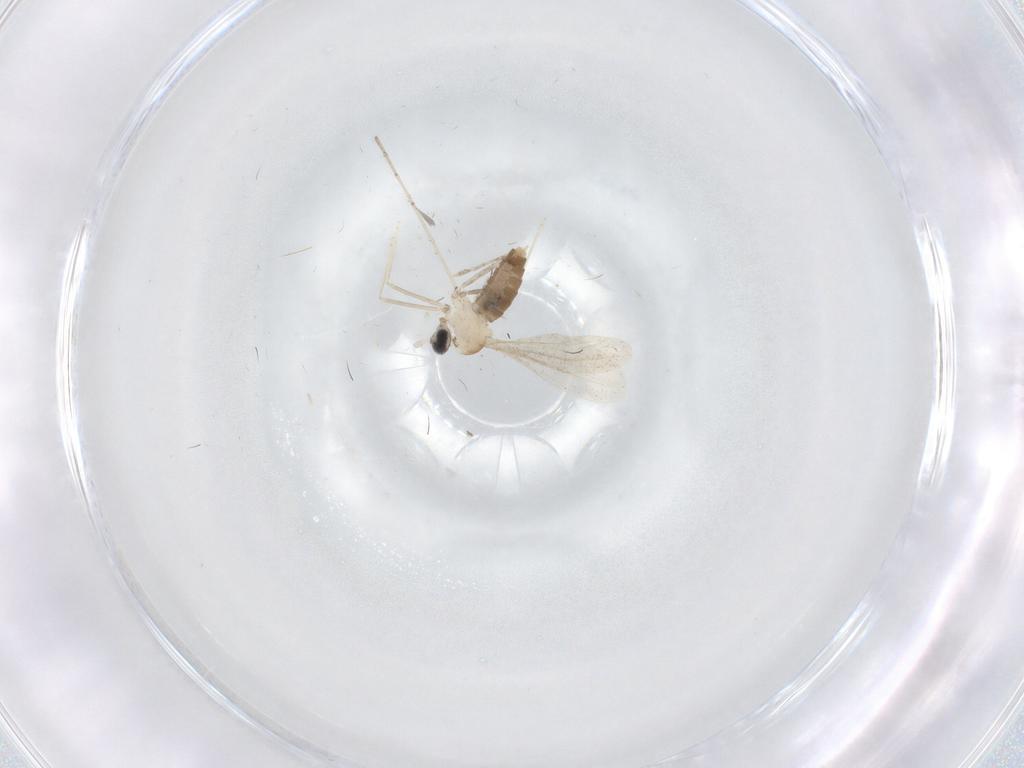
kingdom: Animalia
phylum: Arthropoda
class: Insecta
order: Diptera
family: Cecidomyiidae
